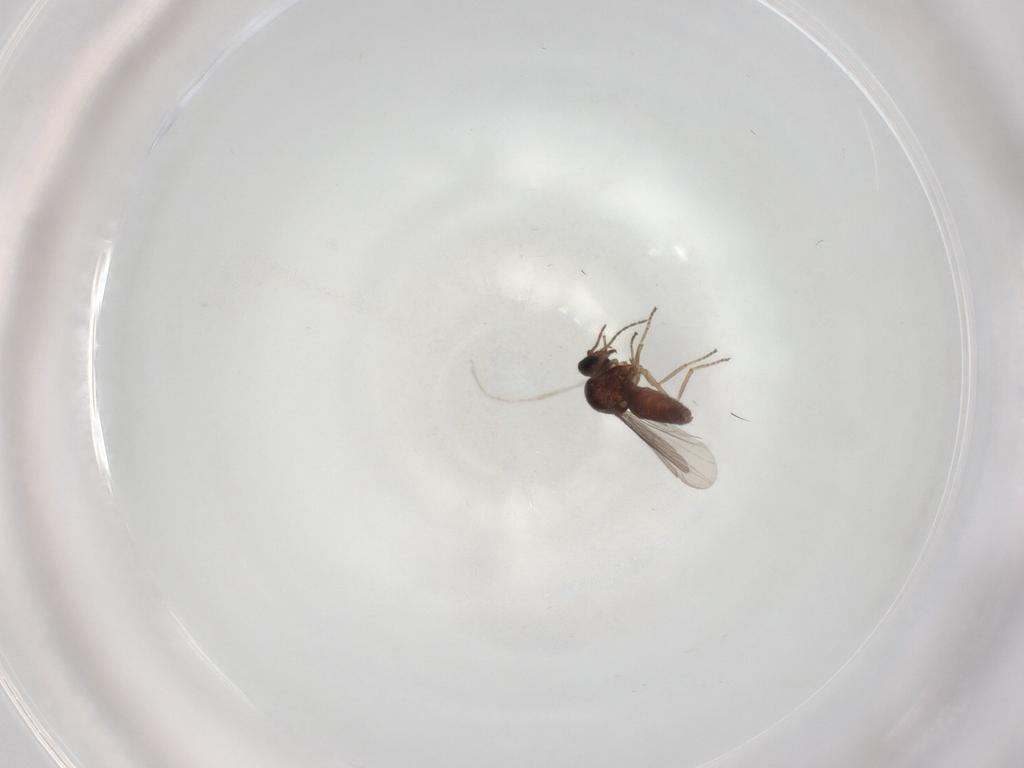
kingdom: Animalia
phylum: Arthropoda
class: Insecta
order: Diptera
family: Ceratopogonidae
